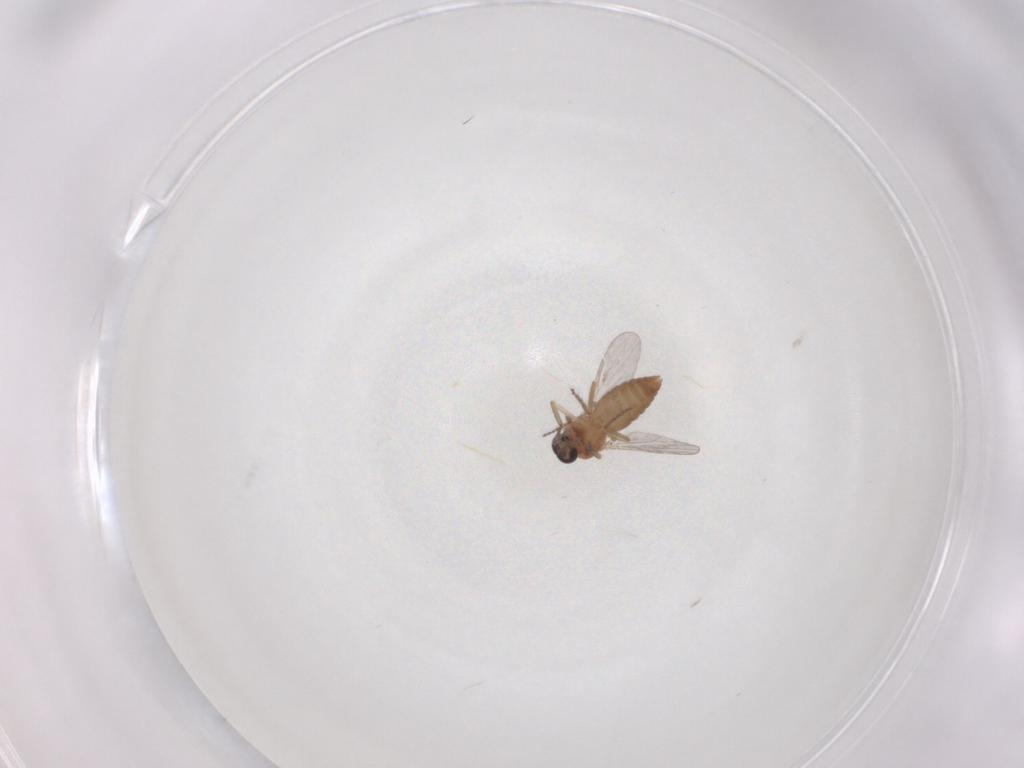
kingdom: Animalia
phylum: Arthropoda
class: Insecta
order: Diptera
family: Ceratopogonidae
